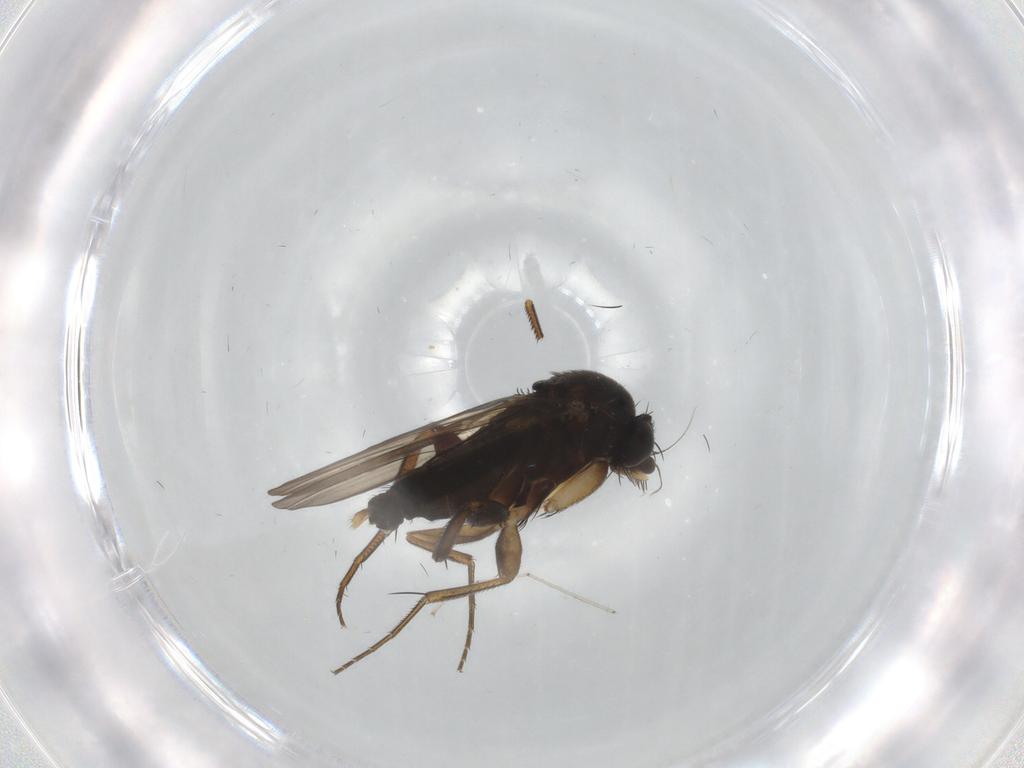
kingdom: Animalia
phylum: Arthropoda
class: Insecta
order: Diptera
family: Phoridae
